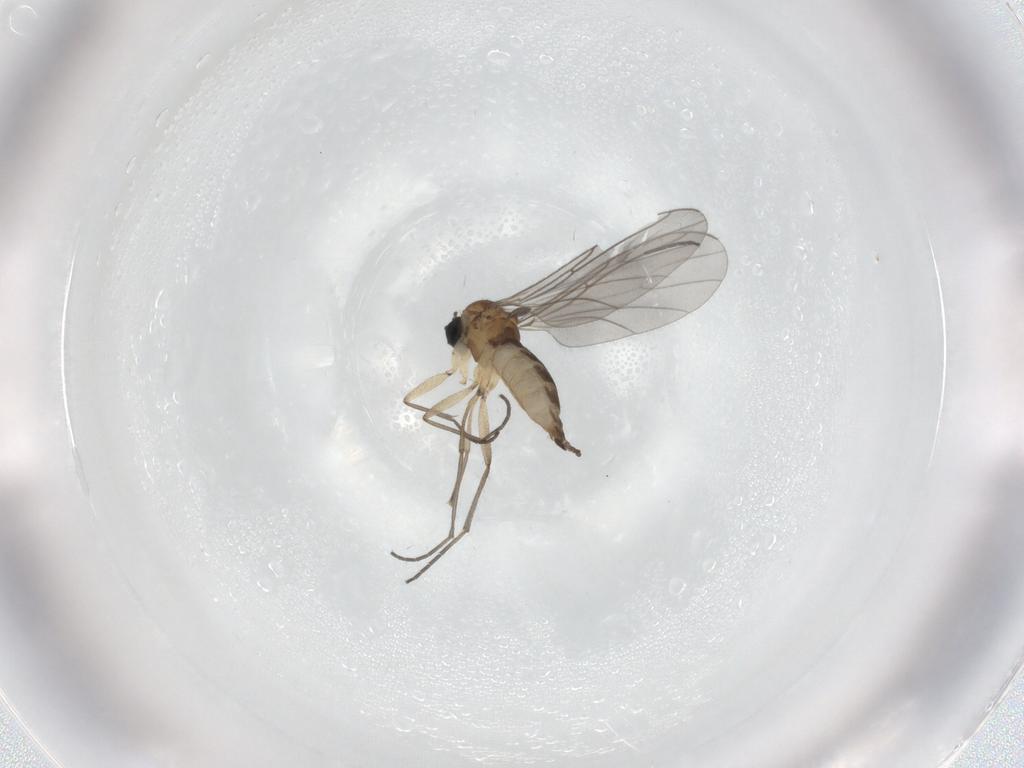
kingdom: Animalia
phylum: Arthropoda
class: Insecta
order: Diptera
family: Sciaridae
